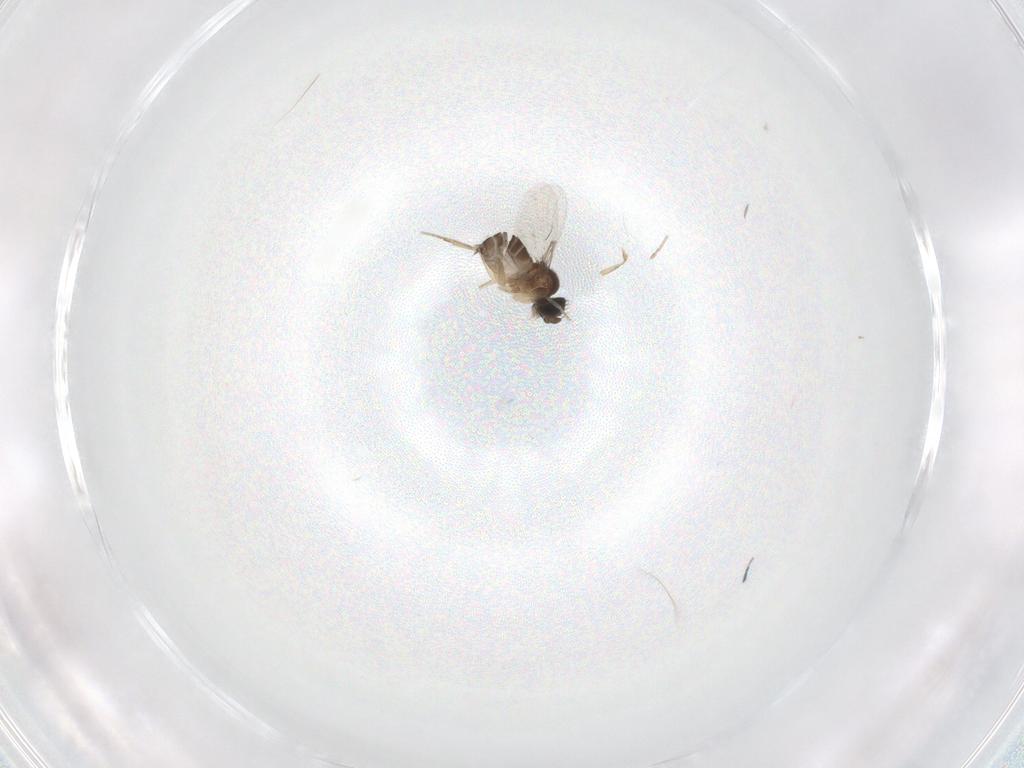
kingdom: Animalia
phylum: Arthropoda
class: Insecta
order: Diptera
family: Phoridae
